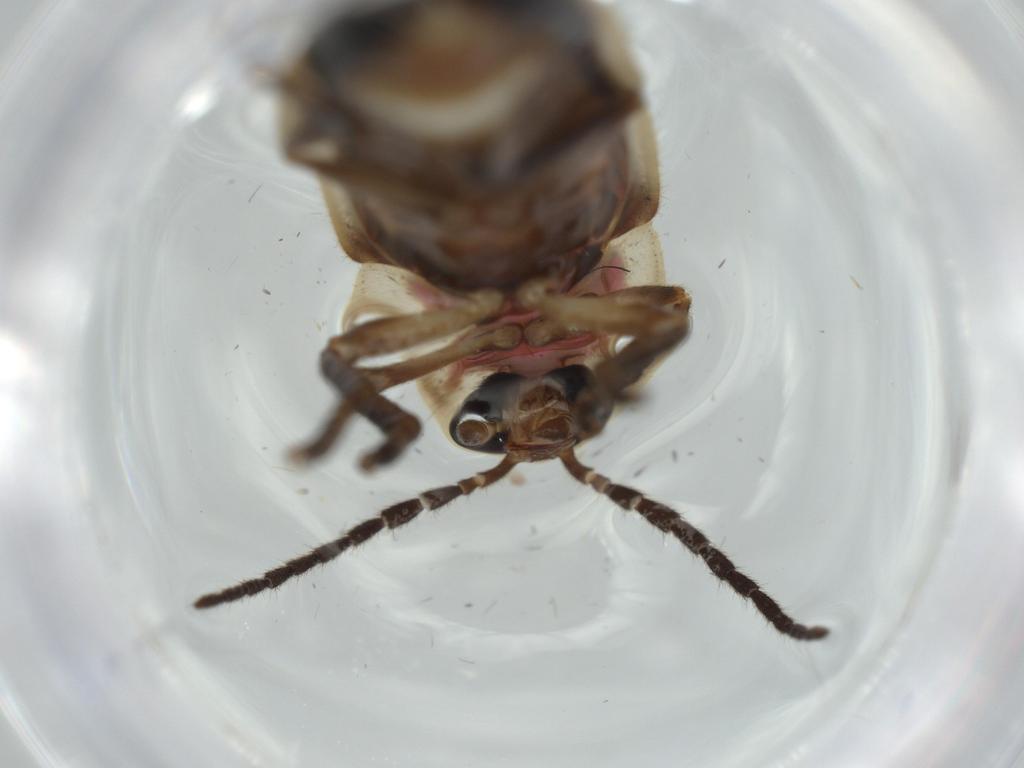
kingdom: Animalia
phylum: Arthropoda
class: Insecta
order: Coleoptera
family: Lampyridae
